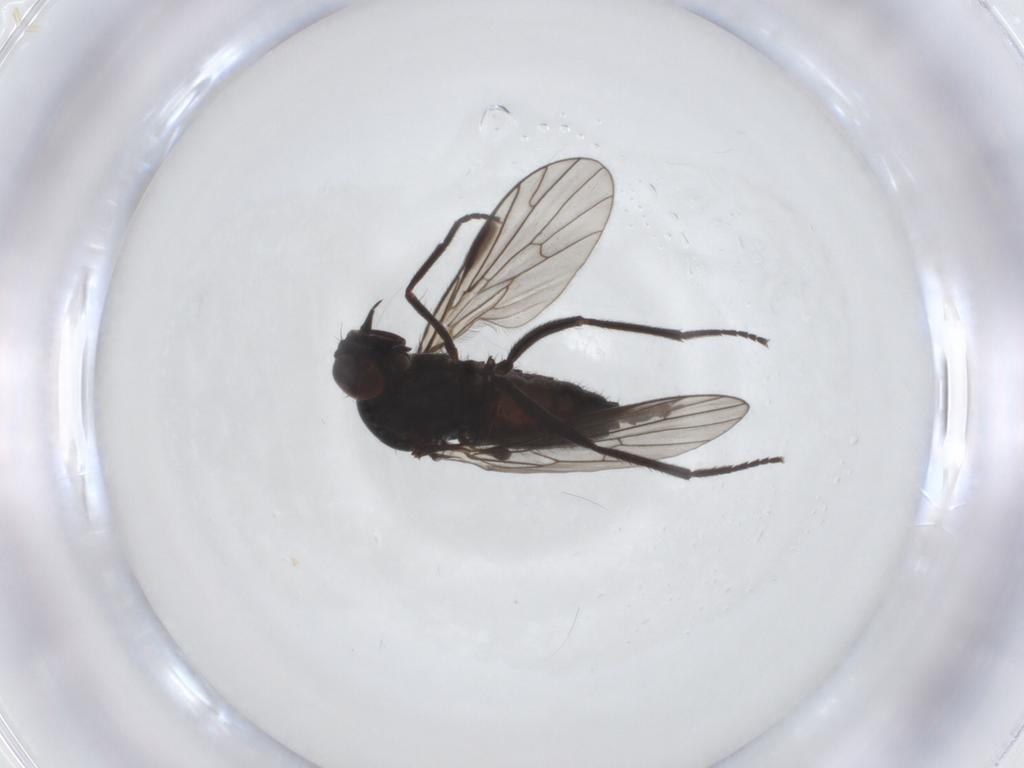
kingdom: Animalia
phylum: Arthropoda
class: Insecta
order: Diptera
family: Empididae
